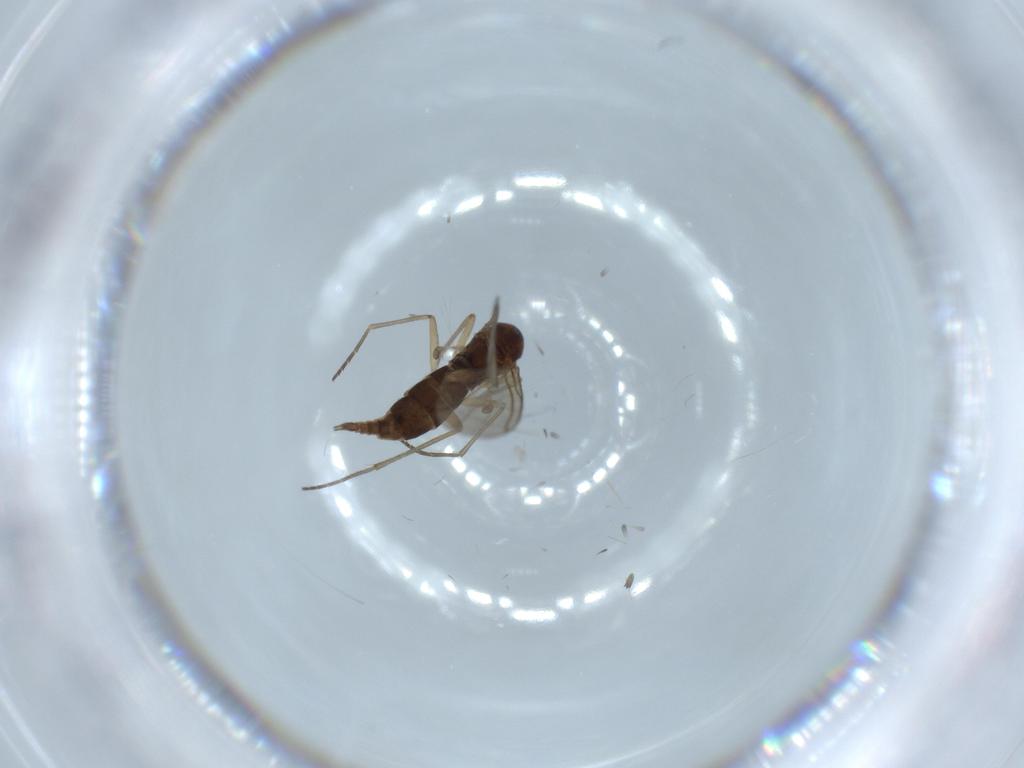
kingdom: Animalia
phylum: Arthropoda
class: Insecta
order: Diptera
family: Sciaridae
